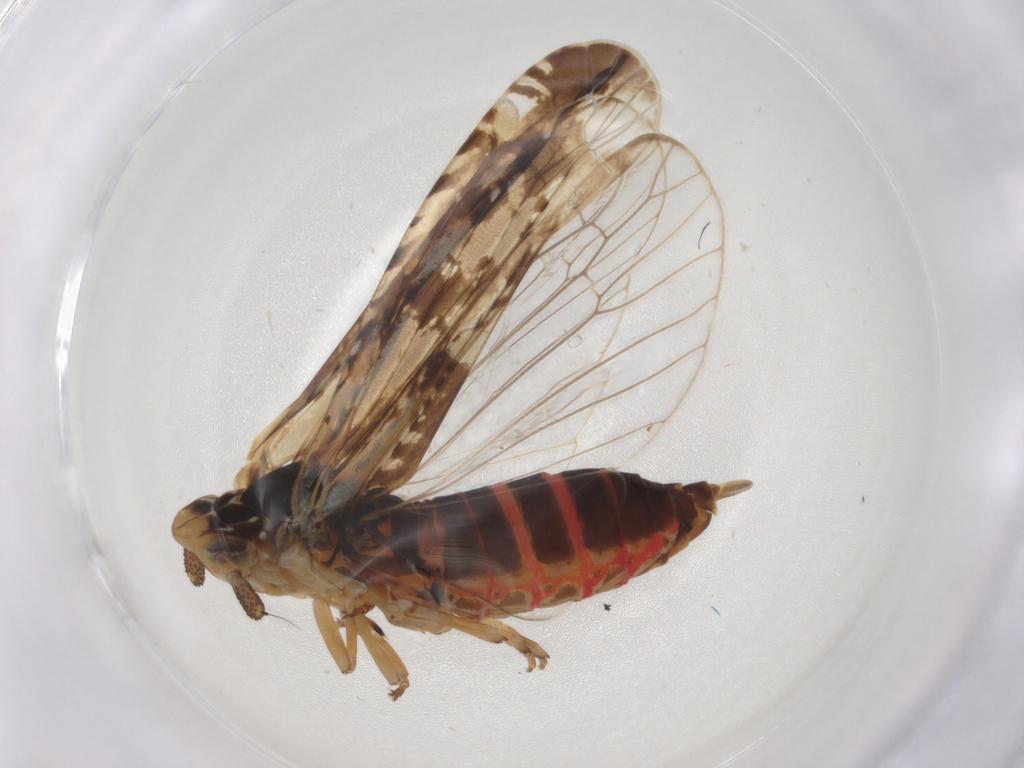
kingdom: Animalia
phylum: Arthropoda
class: Insecta
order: Hemiptera
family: Achilidae
